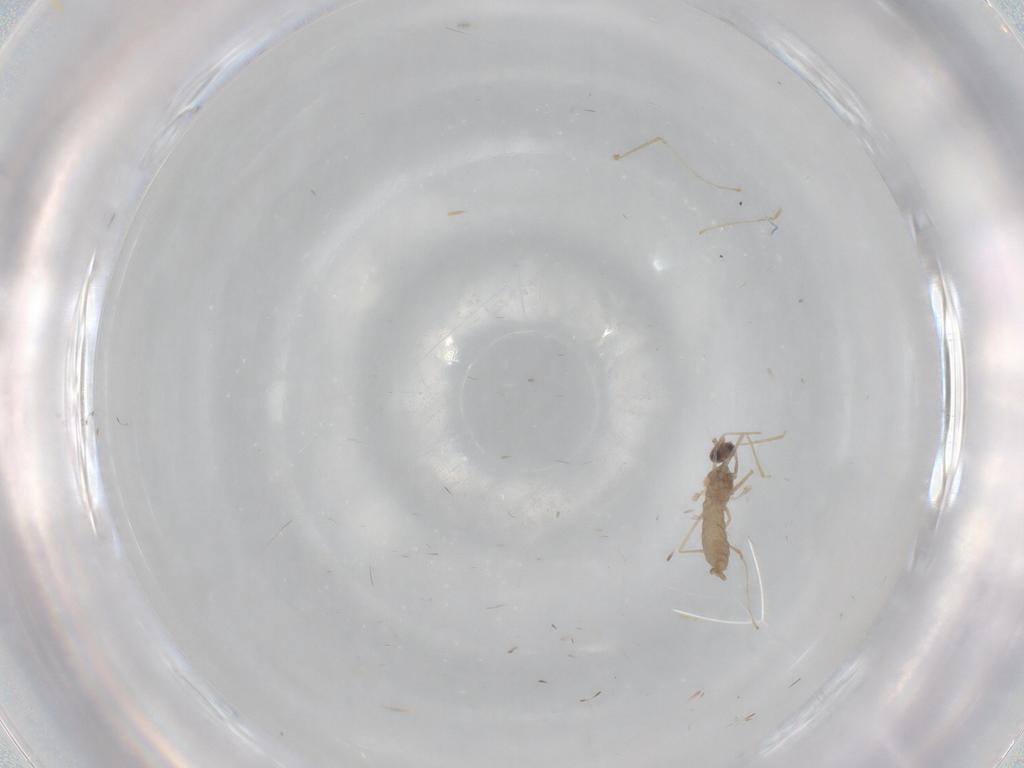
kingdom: Animalia
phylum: Arthropoda
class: Insecta
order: Diptera
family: Cecidomyiidae
